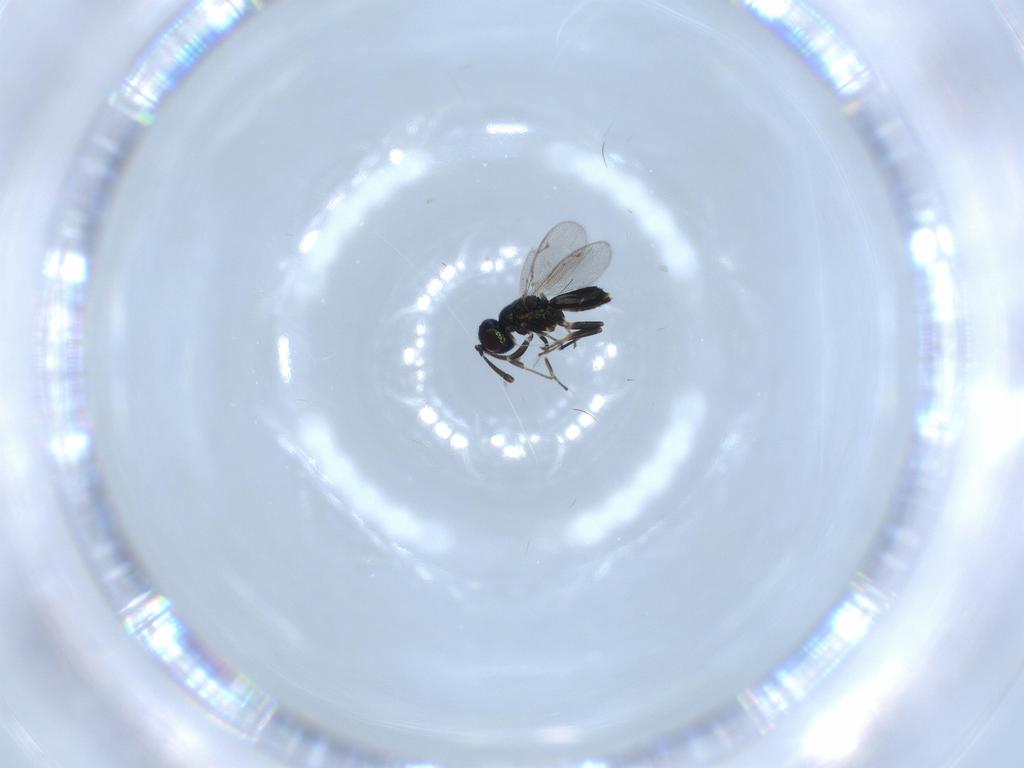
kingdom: Animalia
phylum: Arthropoda
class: Insecta
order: Hymenoptera
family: Eupelmidae
